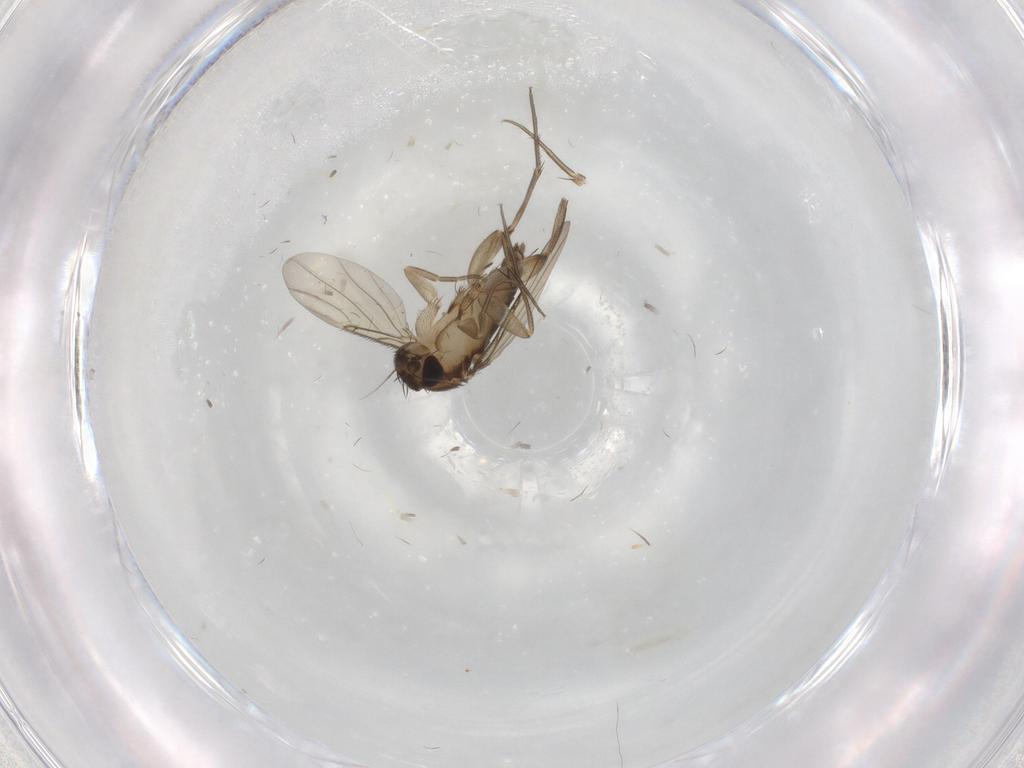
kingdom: Animalia
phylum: Arthropoda
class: Insecta
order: Diptera
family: Phoridae
